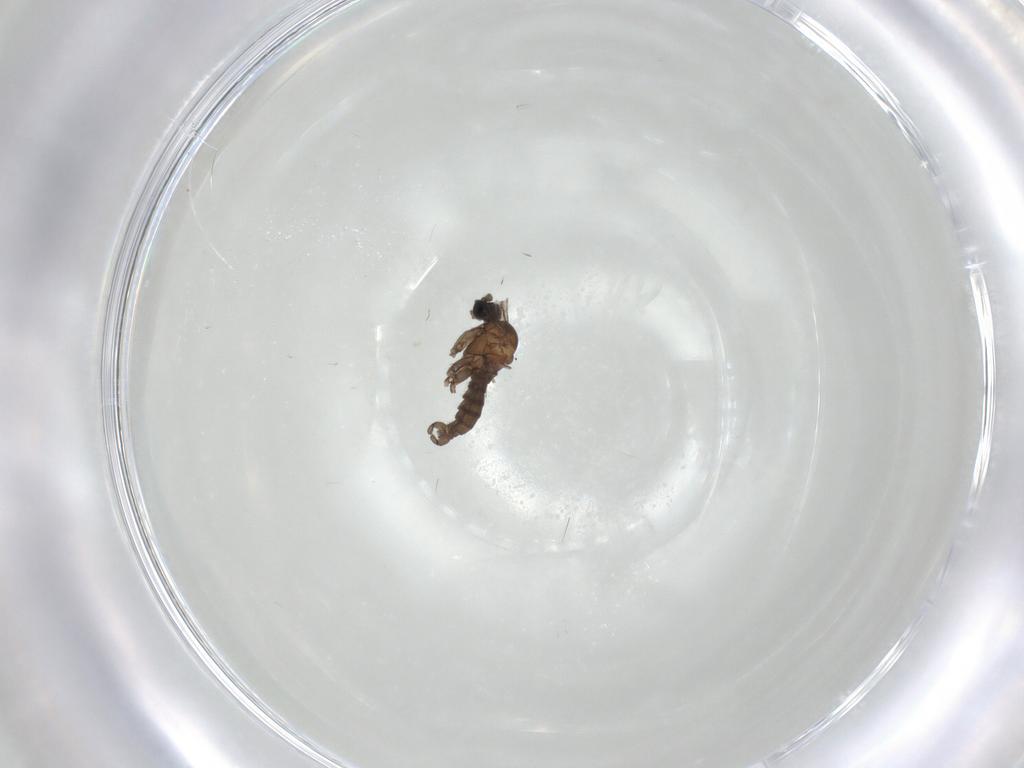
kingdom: Animalia
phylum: Arthropoda
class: Insecta
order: Diptera
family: Sciaridae
